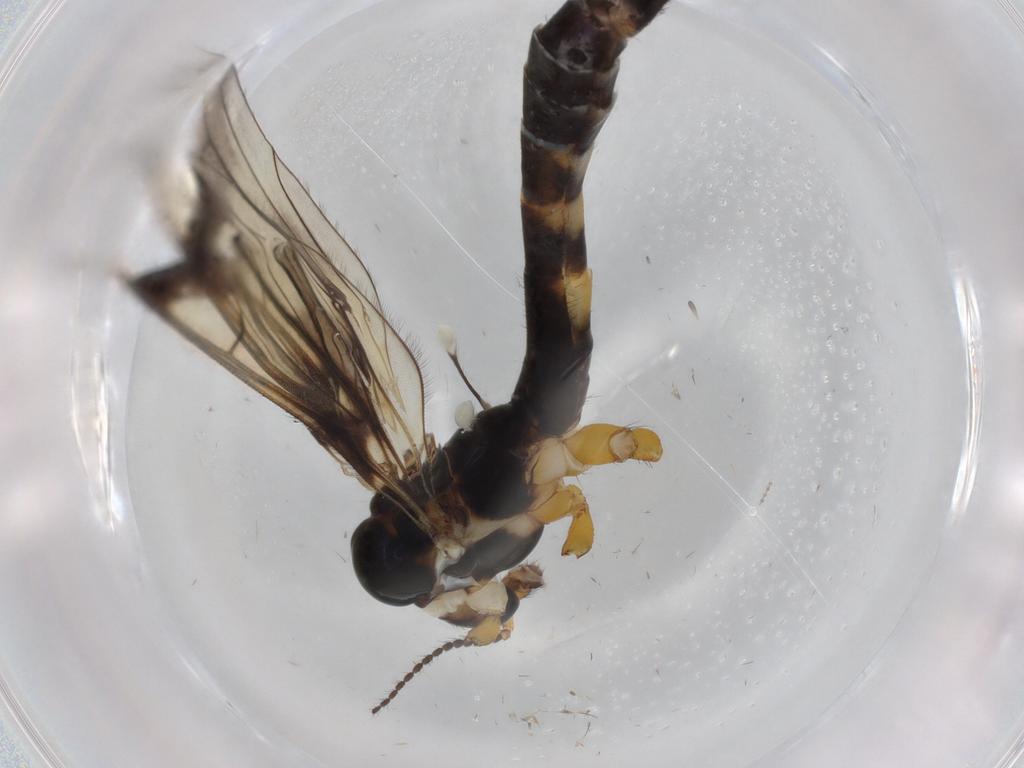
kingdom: Animalia
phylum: Arthropoda
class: Insecta
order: Diptera
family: Limoniidae
